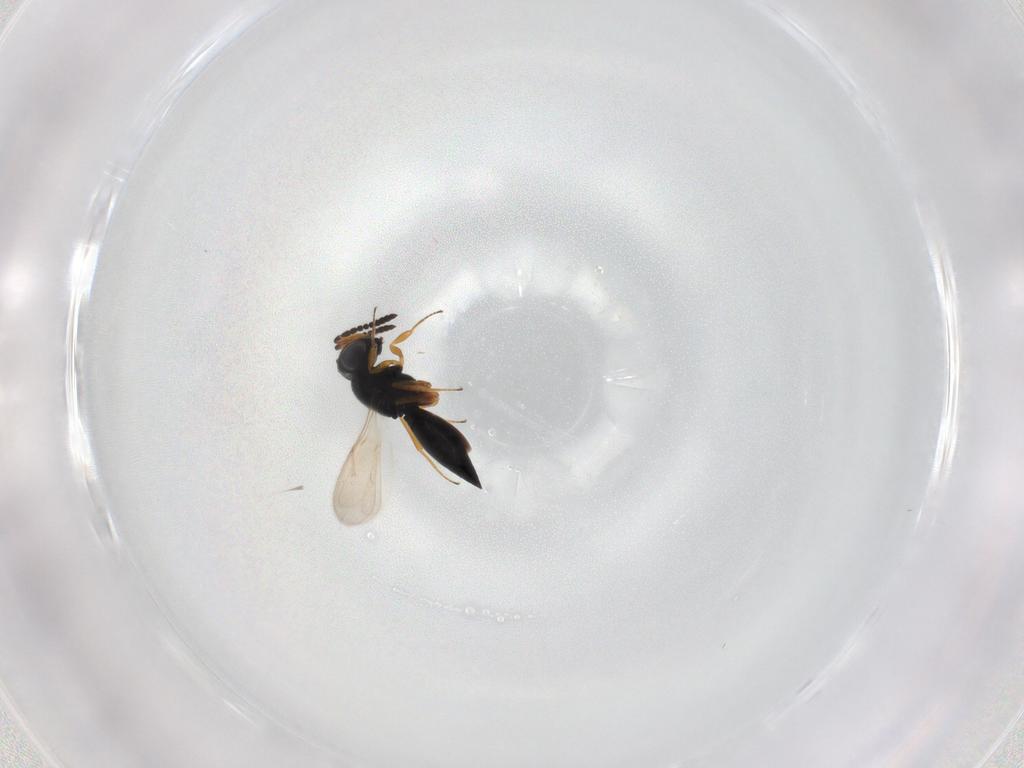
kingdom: Animalia
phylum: Arthropoda
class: Insecta
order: Hymenoptera
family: Scelionidae
